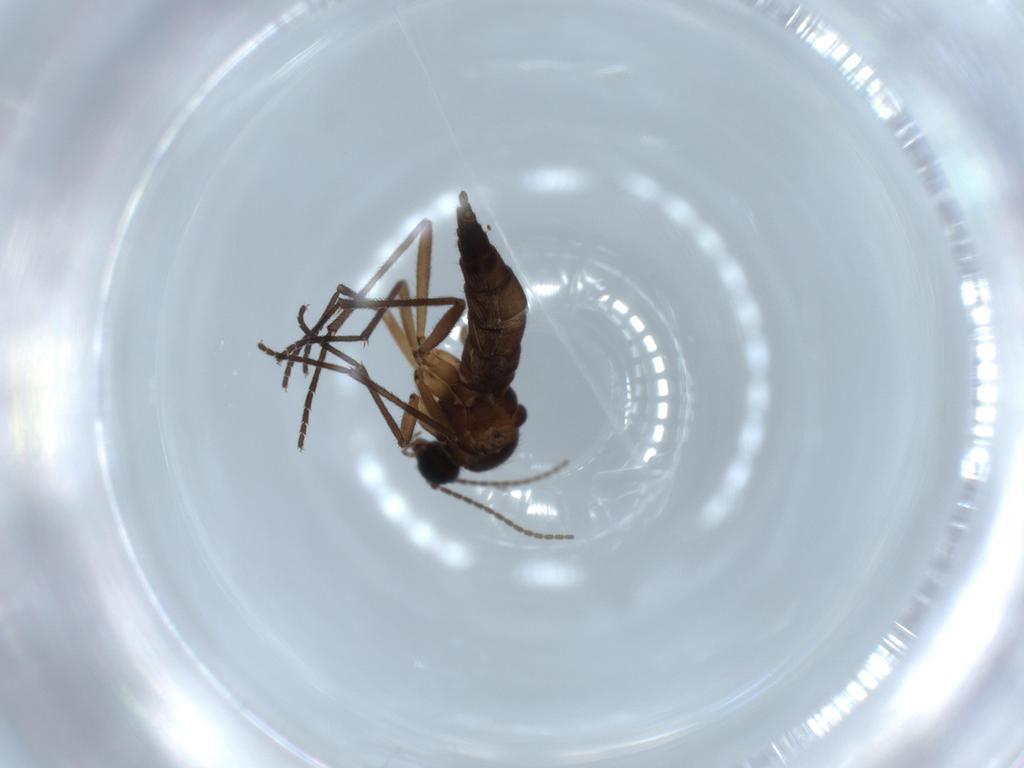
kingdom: Animalia
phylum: Arthropoda
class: Insecta
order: Diptera
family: Sciaridae
